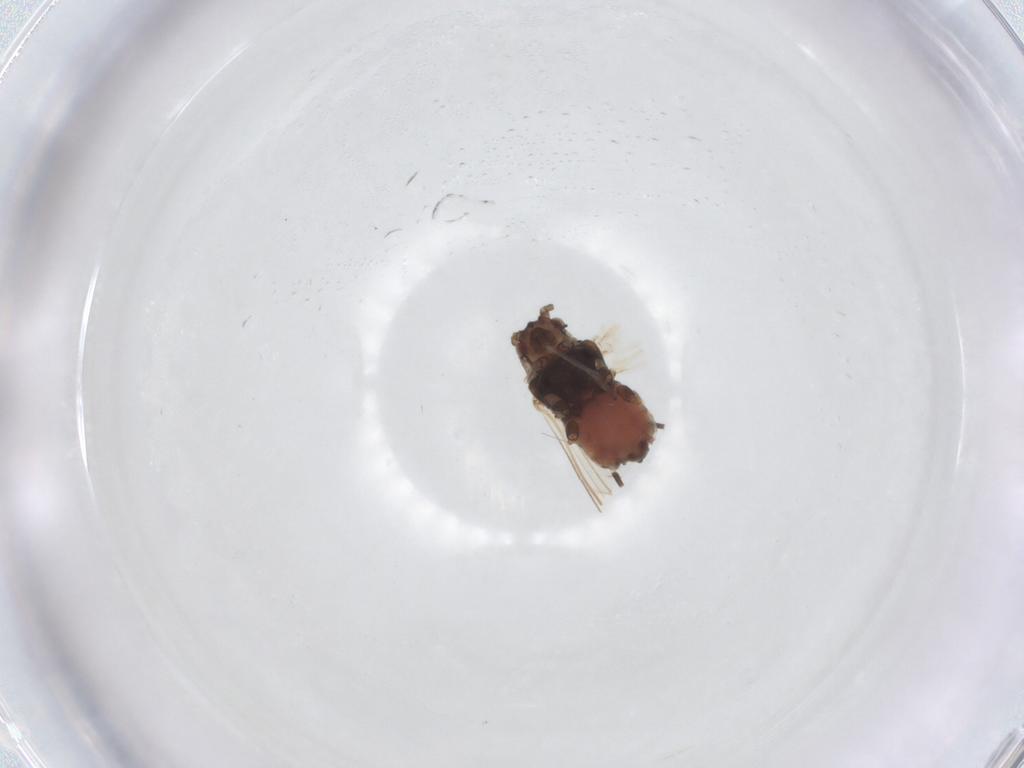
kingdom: Animalia
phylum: Arthropoda
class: Insecta
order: Hemiptera
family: Aphididae
